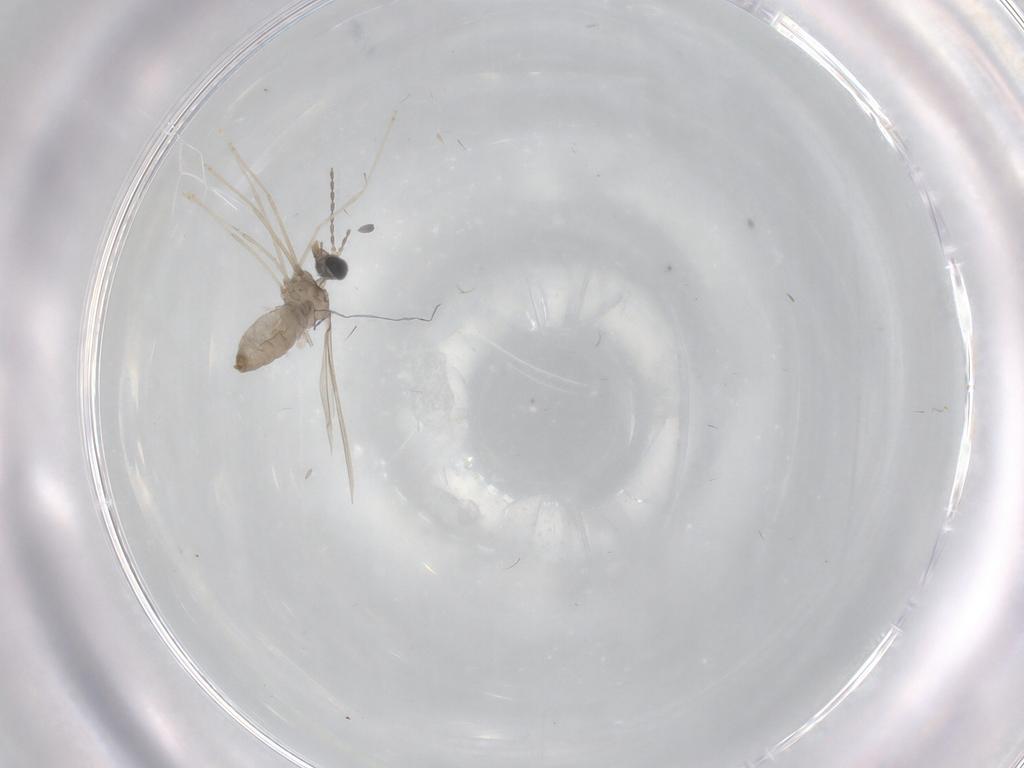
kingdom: Animalia
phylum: Arthropoda
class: Insecta
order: Diptera
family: Cecidomyiidae
